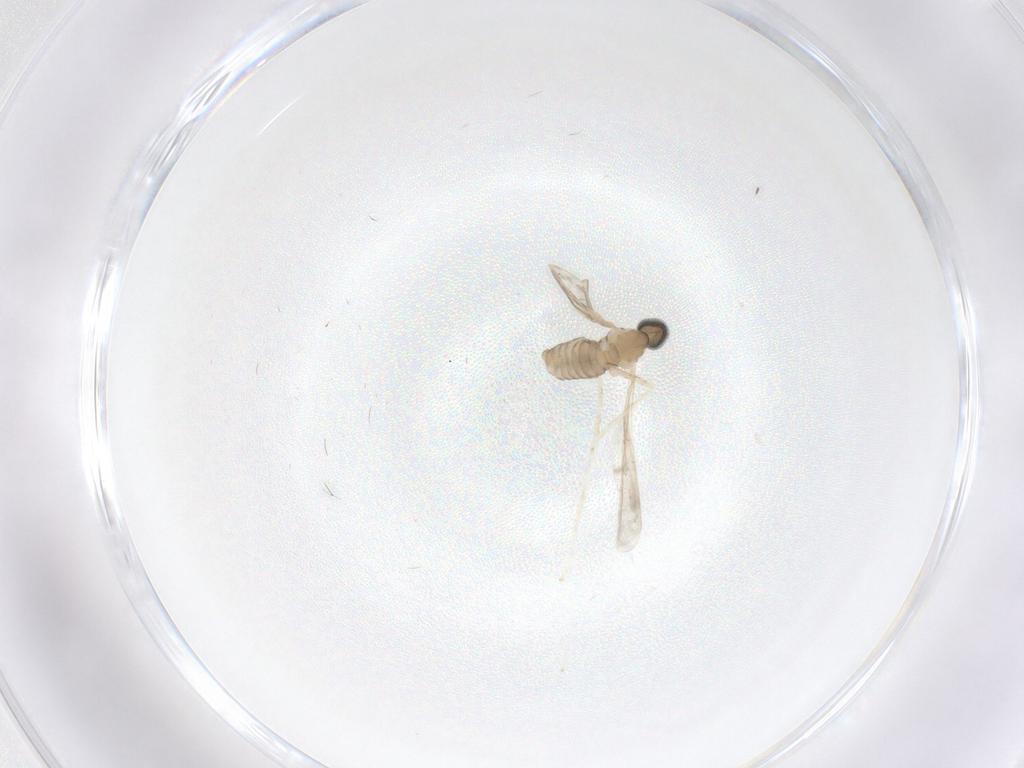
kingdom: Animalia
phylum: Arthropoda
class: Insecta
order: Diptera
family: Cecidomyiidae
